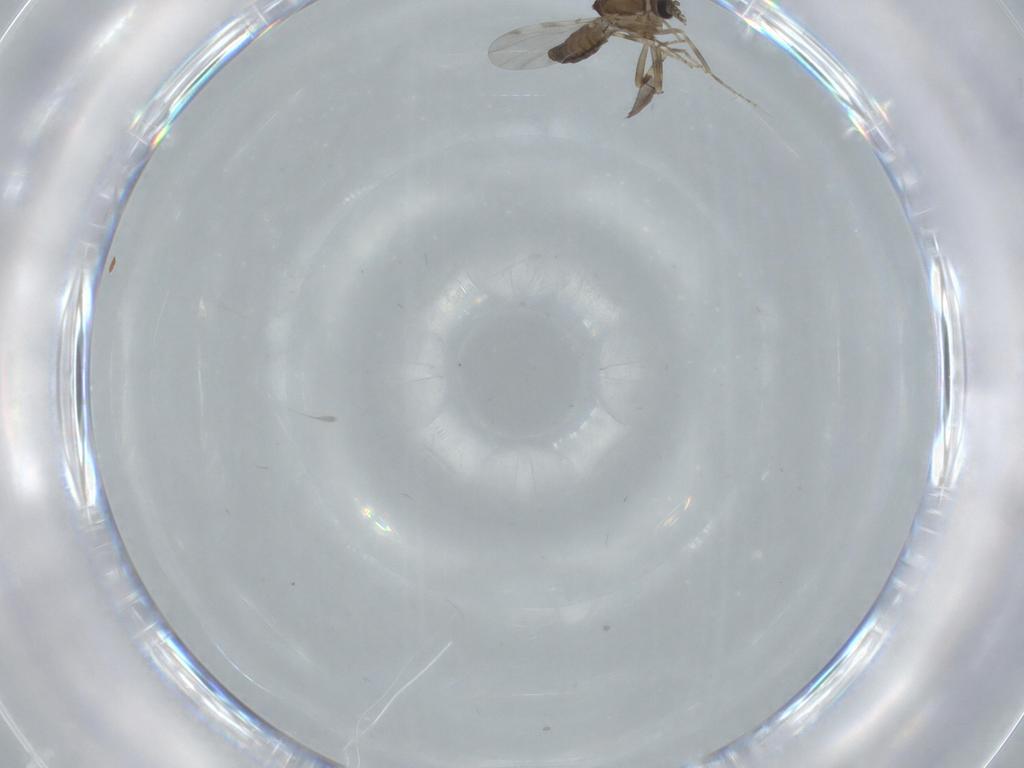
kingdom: Animalia
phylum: Arthropoda
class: Insecta
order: Diptera
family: Ceratopogonidae
